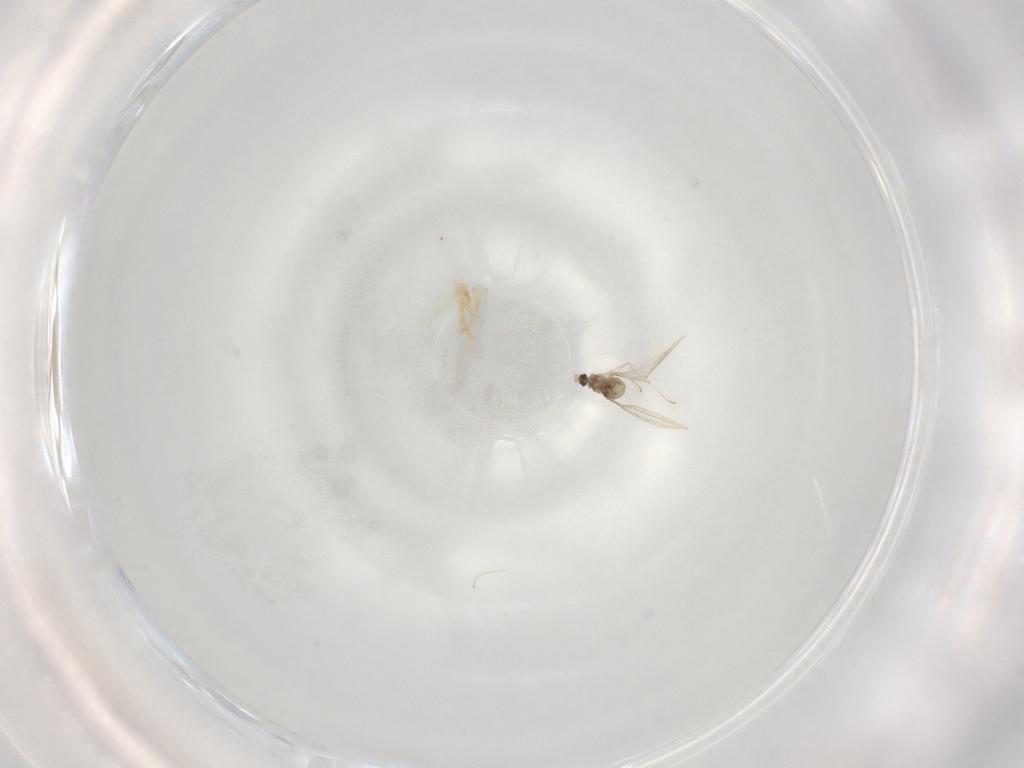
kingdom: Animalia
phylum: Arthropoda
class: Insecta
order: Diptera
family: Cecidomyiidae
